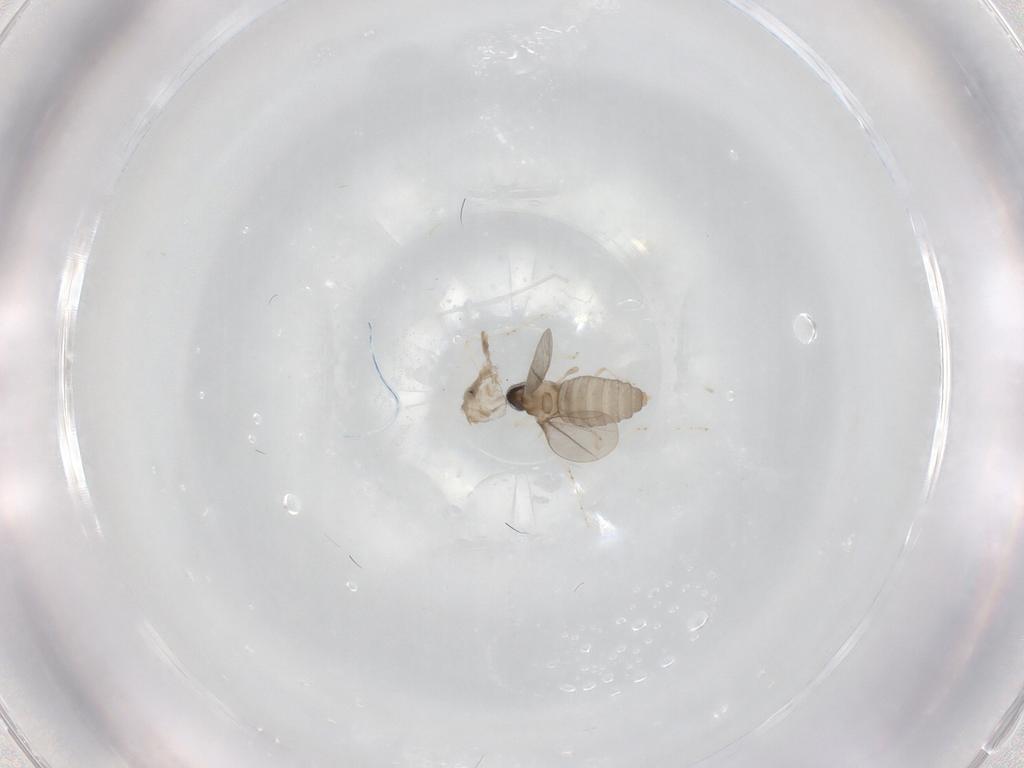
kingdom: Animalia
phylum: Arthropoda
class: Insecta
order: Diptera
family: Cecidomyiidae
